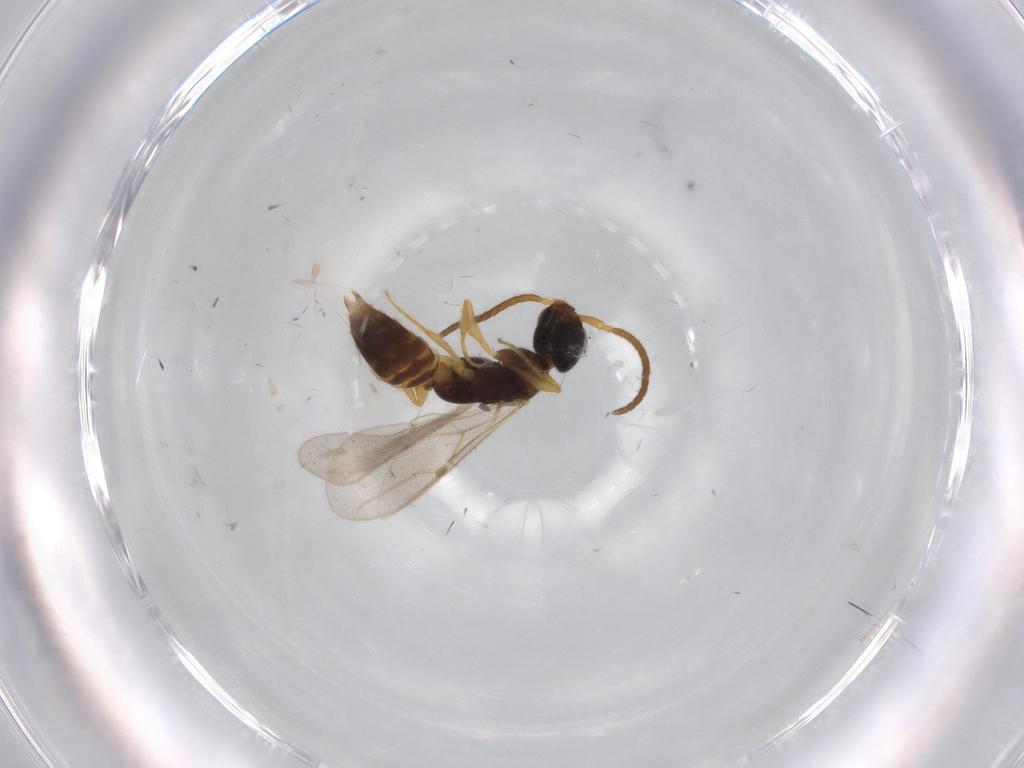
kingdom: Animalia
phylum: Arthropoda
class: Insecta
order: Hymenoptera
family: Bethylidae
